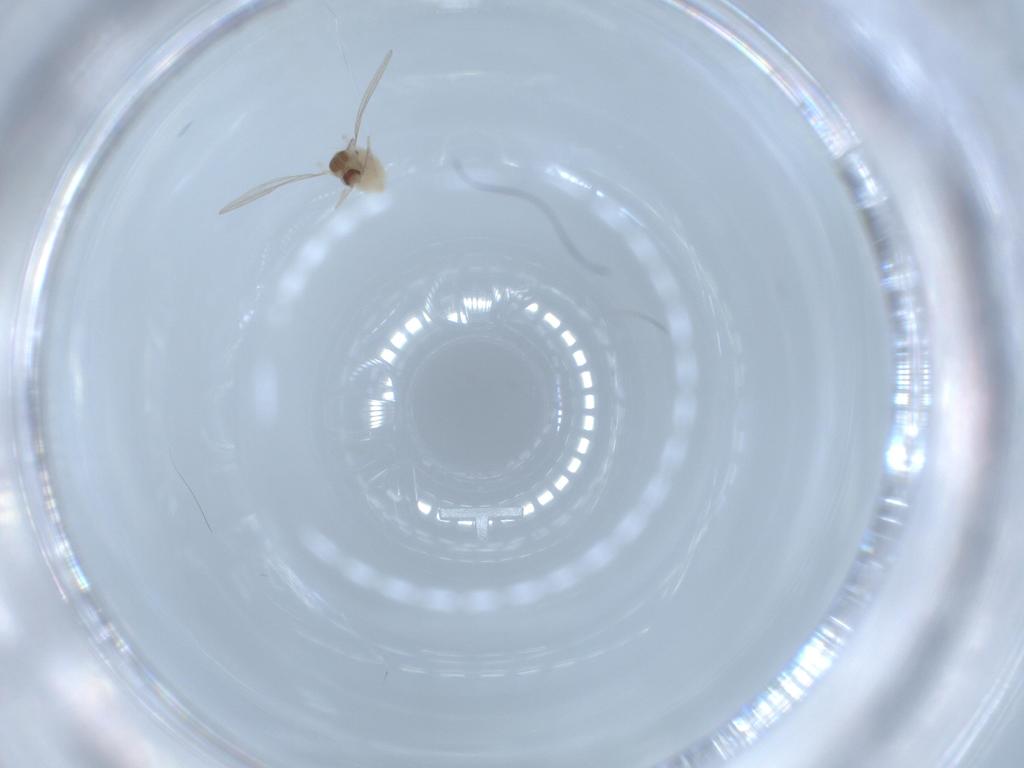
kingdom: Animalia
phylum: Arthropoda
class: Insecta
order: Diptera
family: Cecidomyiidae
